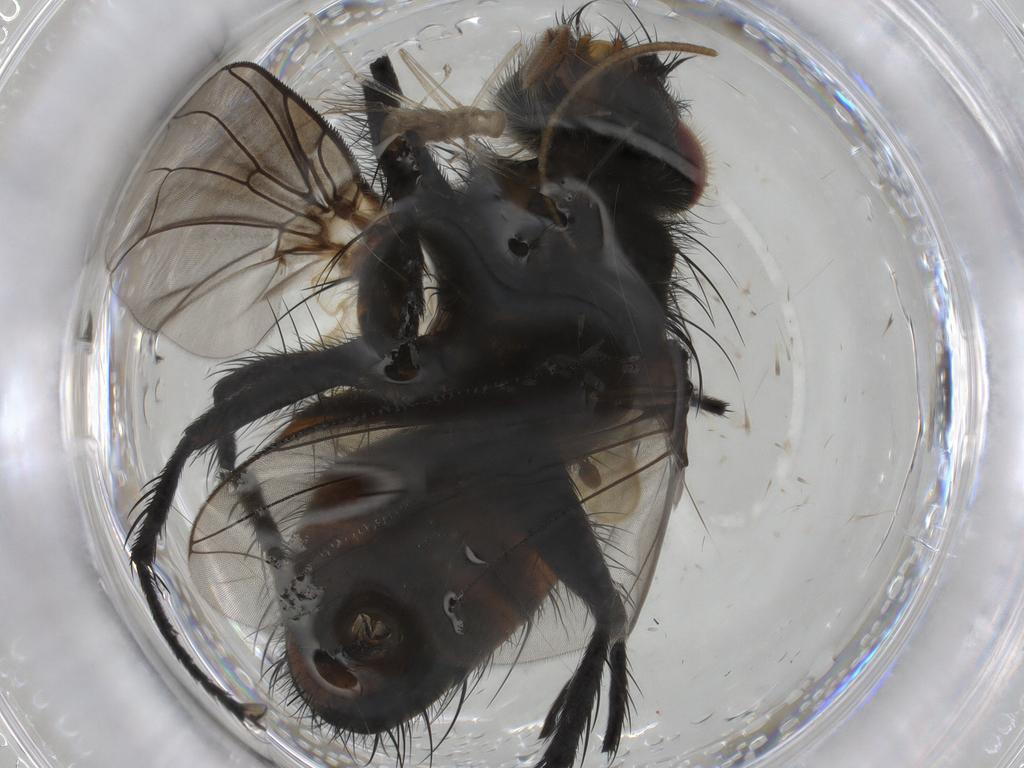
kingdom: Animalia
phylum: Arthropoda
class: Insecta
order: Diptera
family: Tachinidae
